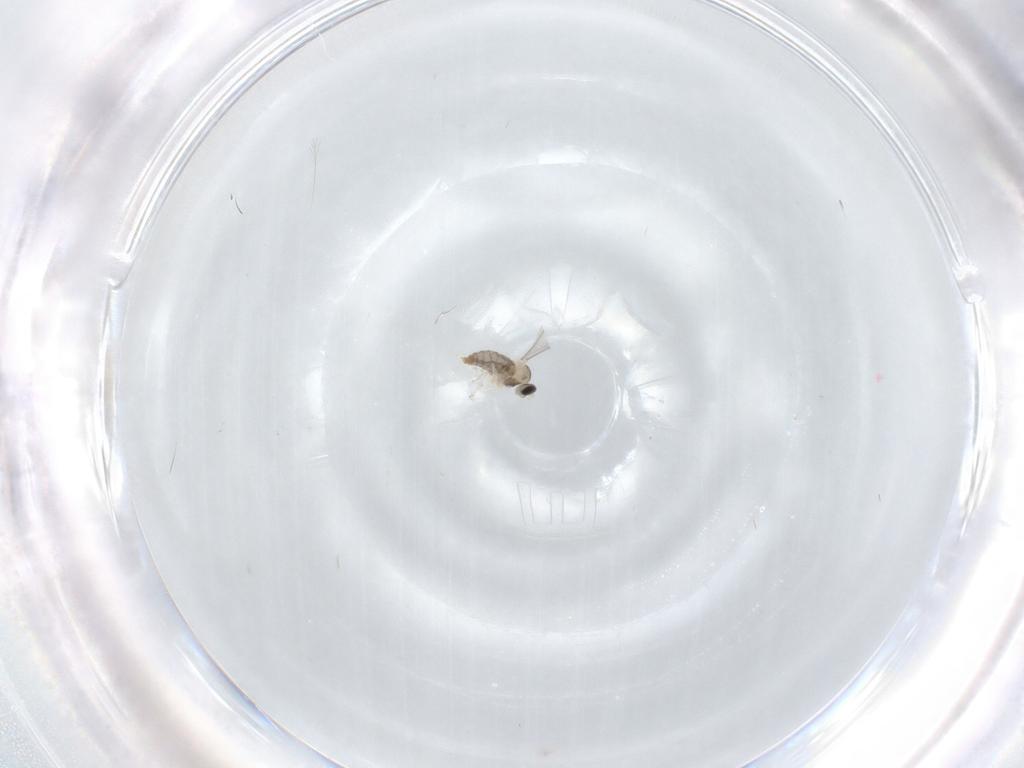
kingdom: Animalia
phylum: Arthropoda
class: Insecta
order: Diptera
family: Cecidomyiidae
